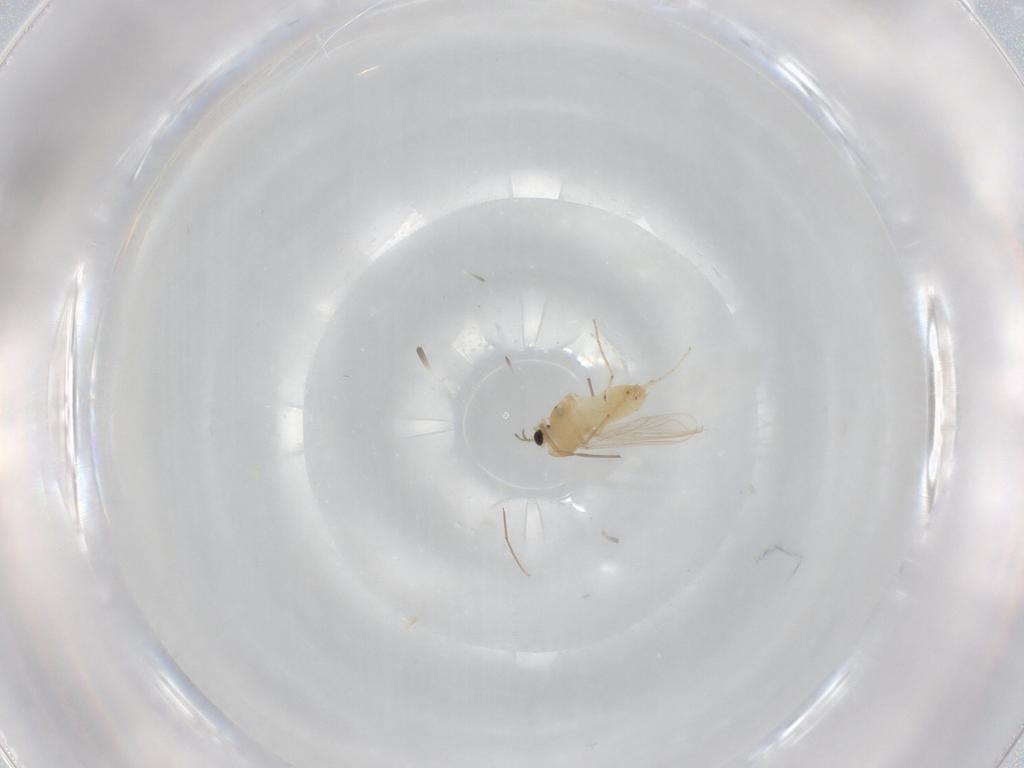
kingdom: Animalia
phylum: Arthropoda
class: Insecta
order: Diptera
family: Chironomidae
